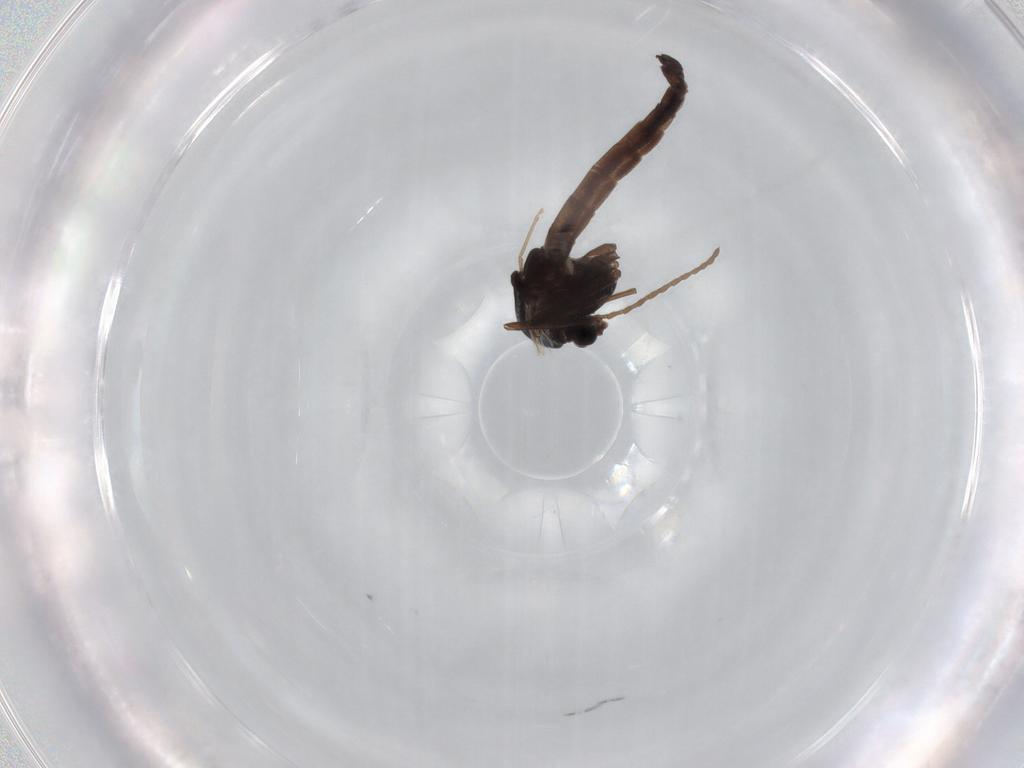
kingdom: Animalia
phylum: Arthropoda
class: Insecta
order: Diptera
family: Chironomidae
